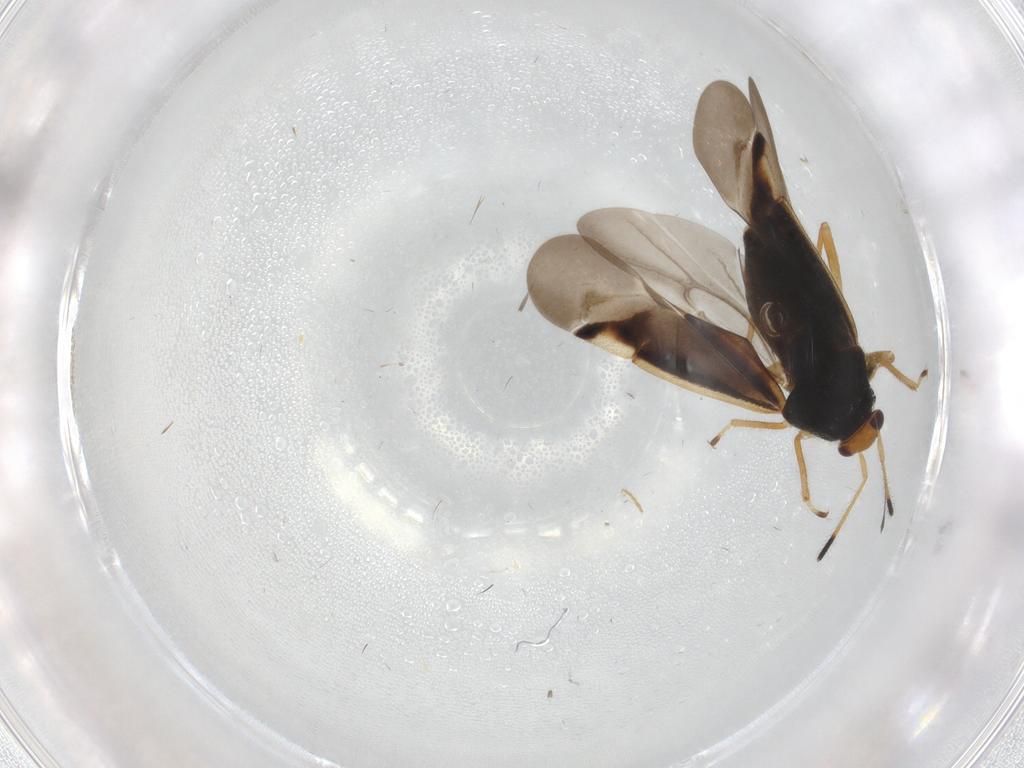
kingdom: Animalia
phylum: Arthropoda
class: Insecta
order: Hemiptera
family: Miridae
